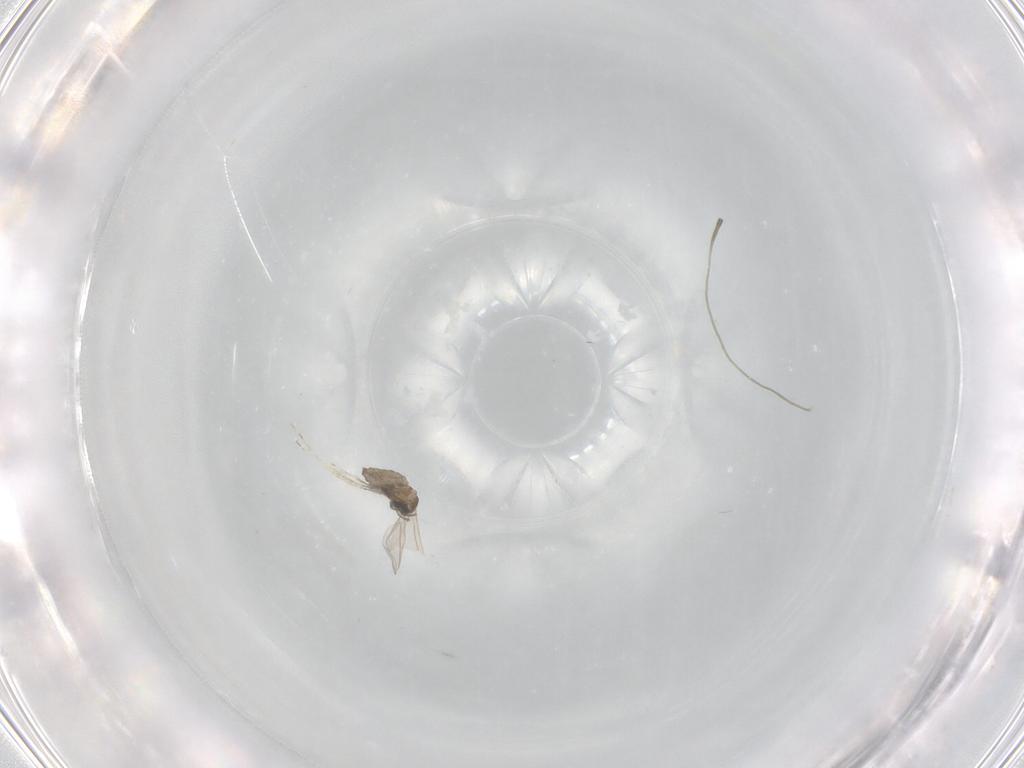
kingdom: Animalia
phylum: Arthropoda
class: Insecta
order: Diptera
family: Cecidomyiidae
